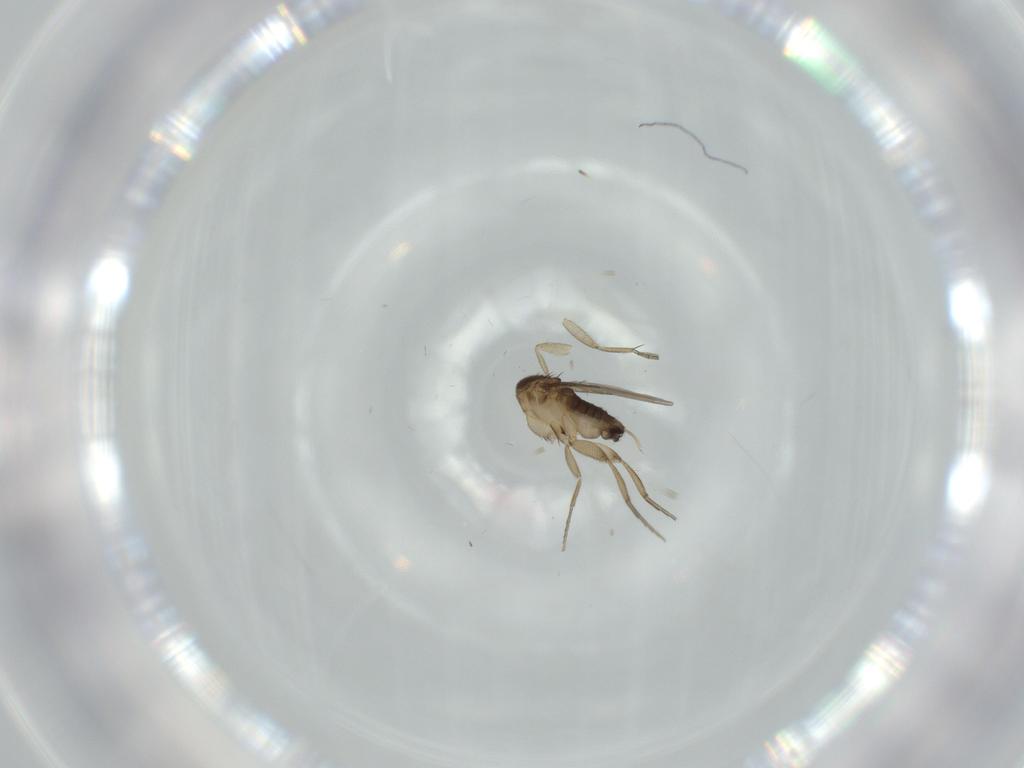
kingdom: Animalia
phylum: Arthropoda
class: Insecta
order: Diptera
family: Phoridae
